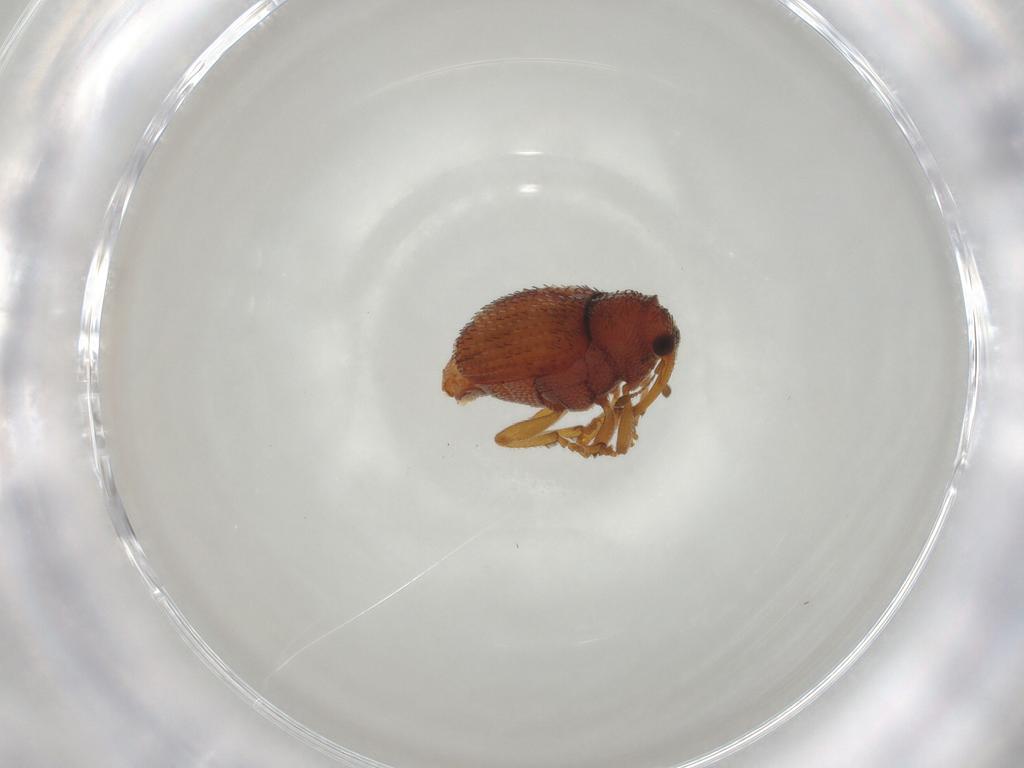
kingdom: Animalia
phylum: Arthropoda
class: Insecta
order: Coleoptera
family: Curculionidae
